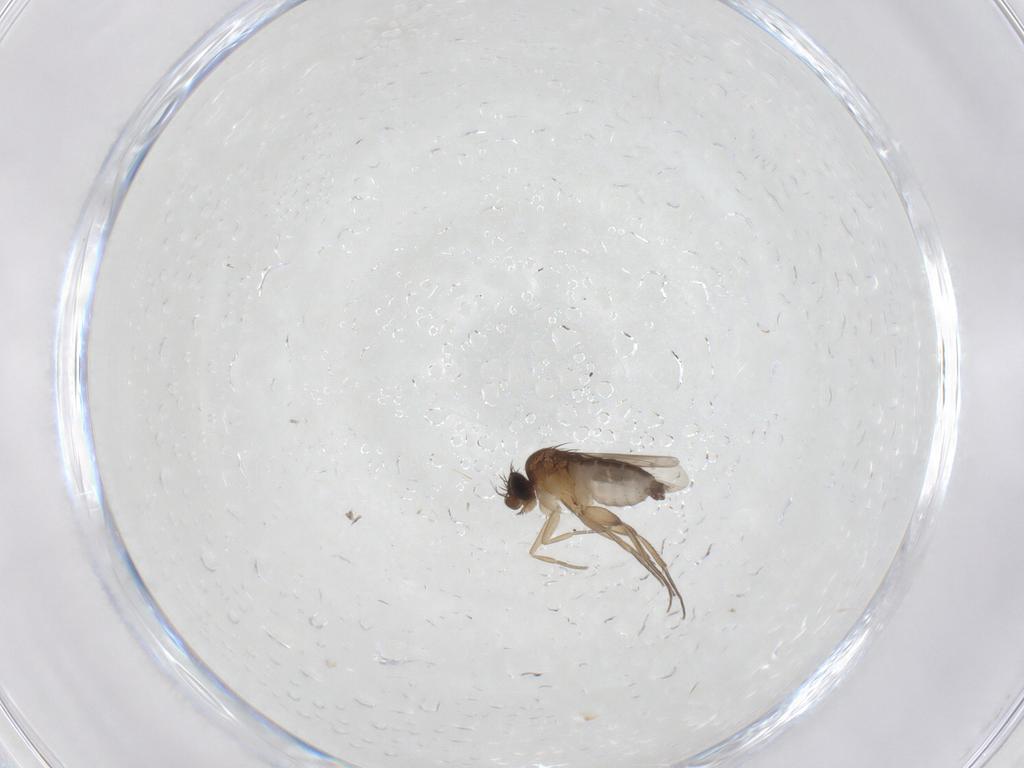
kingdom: Animalia
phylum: Arthropoda
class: Insecta
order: Diptera
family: Phoridae
